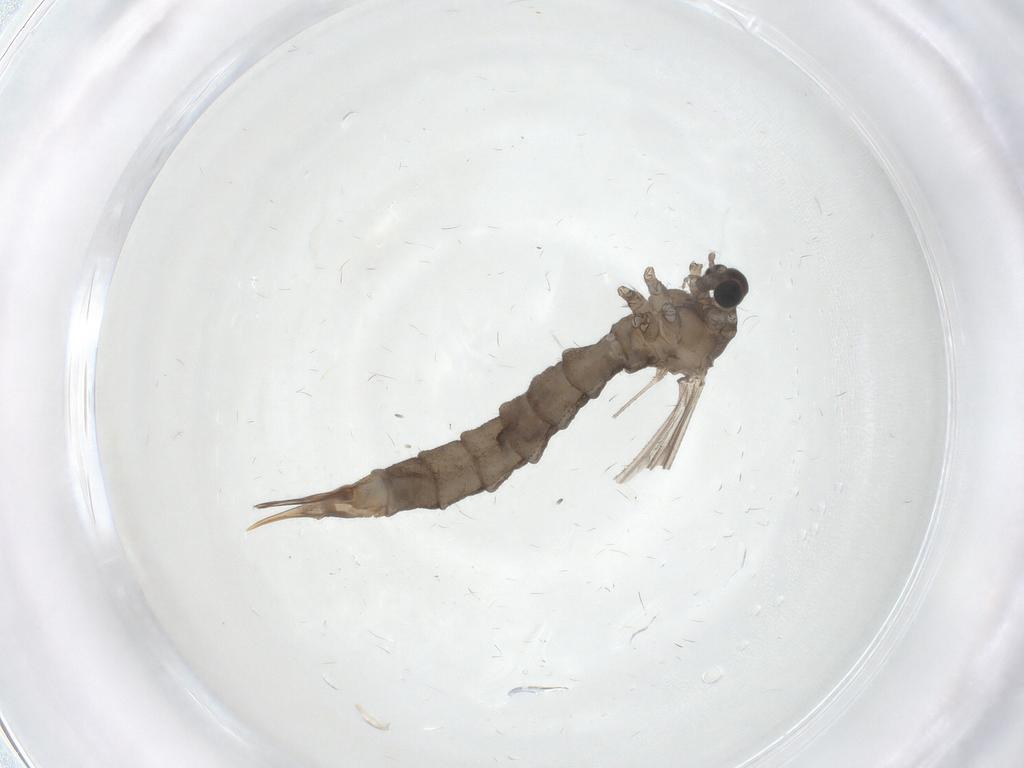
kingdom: Animalia
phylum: Arthropoda
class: Insecta
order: Diptera
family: Limoniidae
